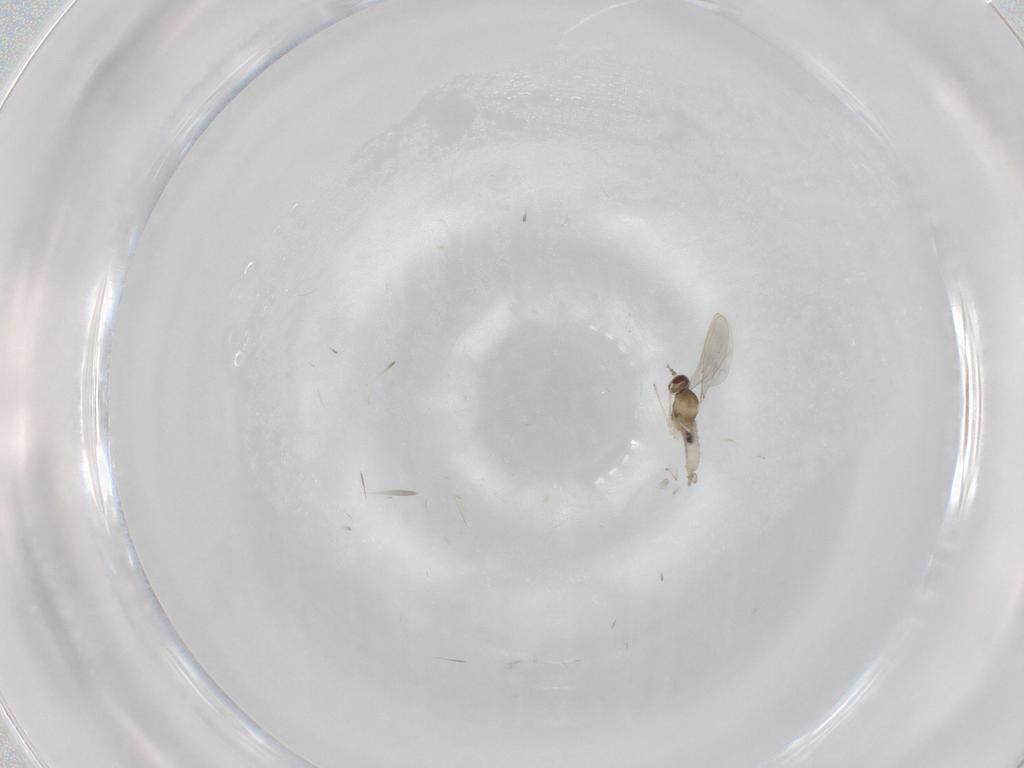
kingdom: Animalia
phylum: Arthropoda
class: Insecta
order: Diptera
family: Cecidomyiidae
